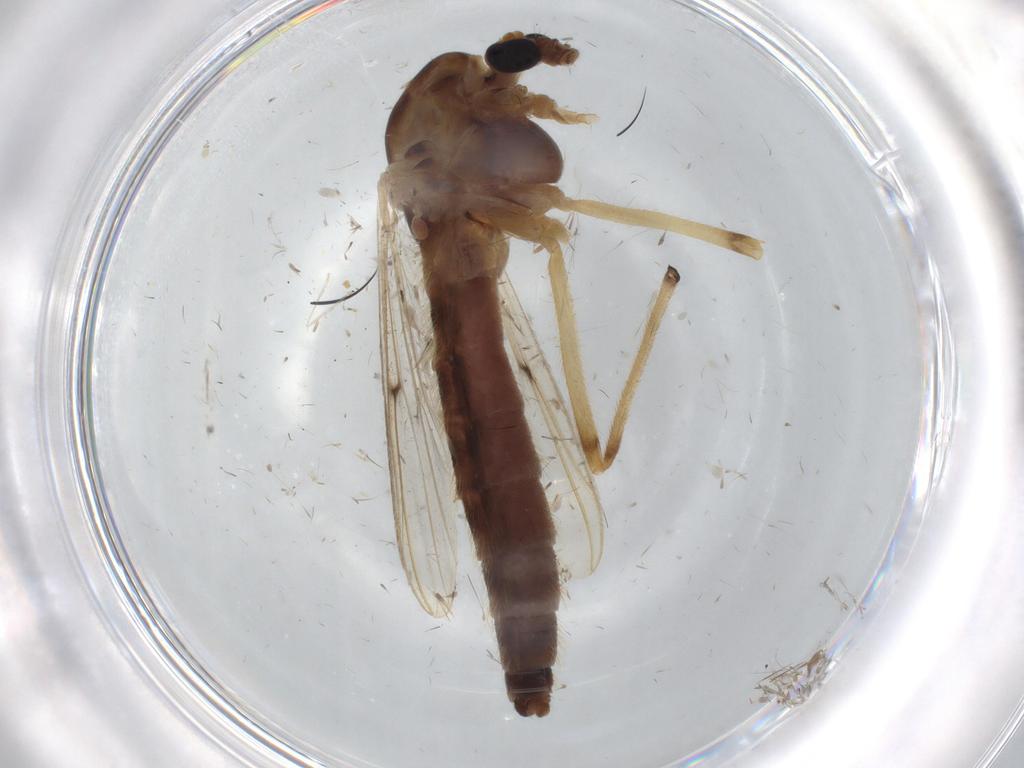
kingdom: Animalia
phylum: Arthropoda
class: Insecta
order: Diptera
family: Chironomidae
